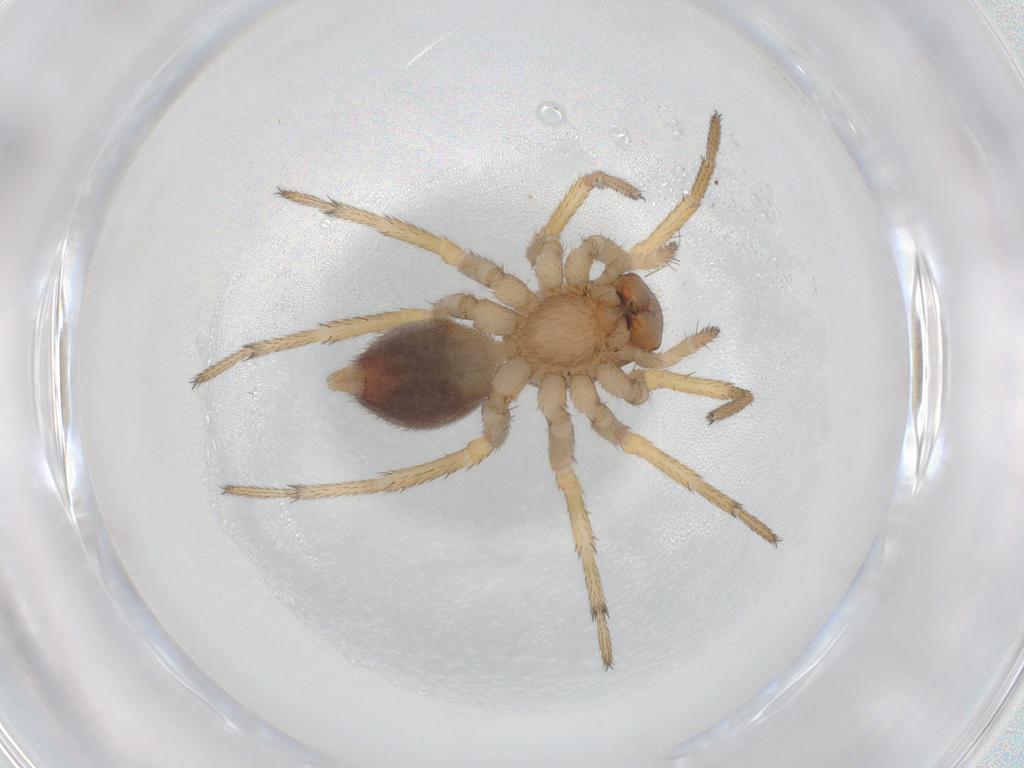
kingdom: Animalia
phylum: Arthropoda
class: Arachnida
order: Araneae
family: Zodariidae
